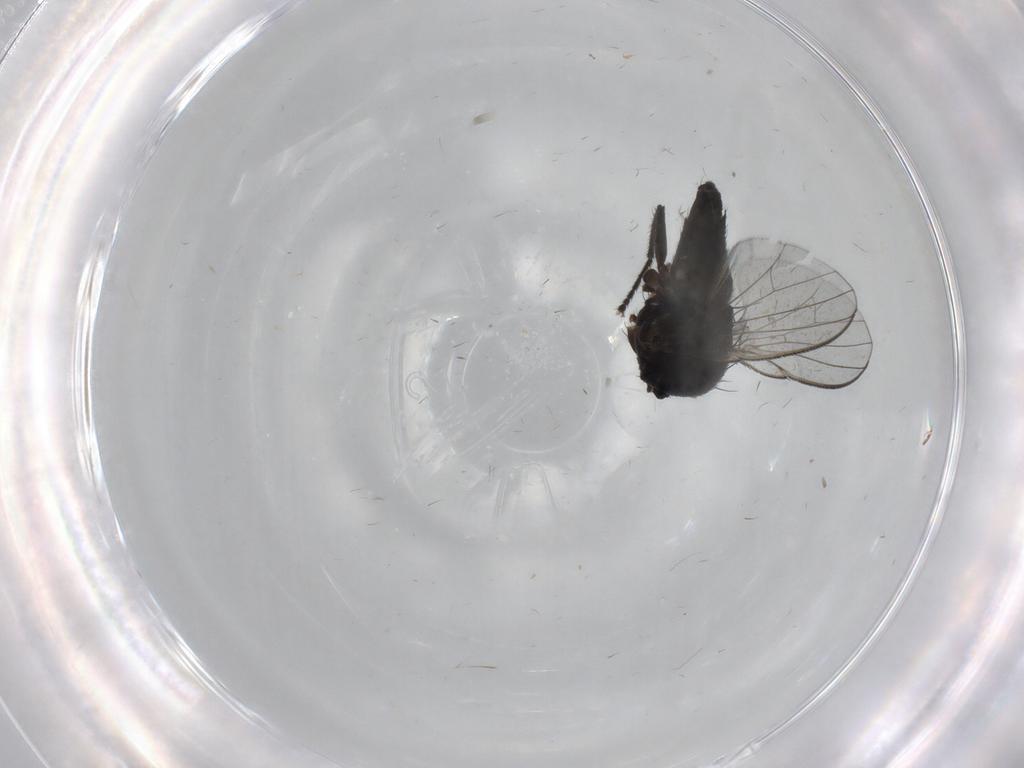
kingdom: Animalia
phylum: Arthropoda
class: Insecta
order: Diptera
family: Milichiidae
